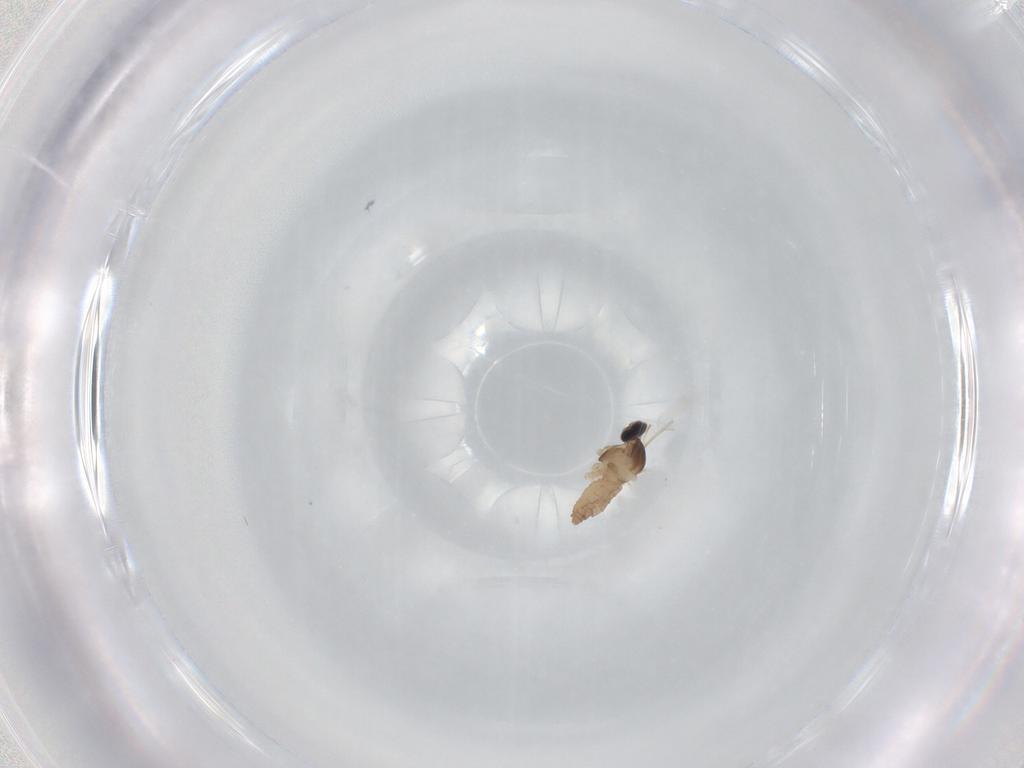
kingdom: Animalia
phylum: Arthropoda
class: Insecta
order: Diptera
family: Cecidomyiidae
